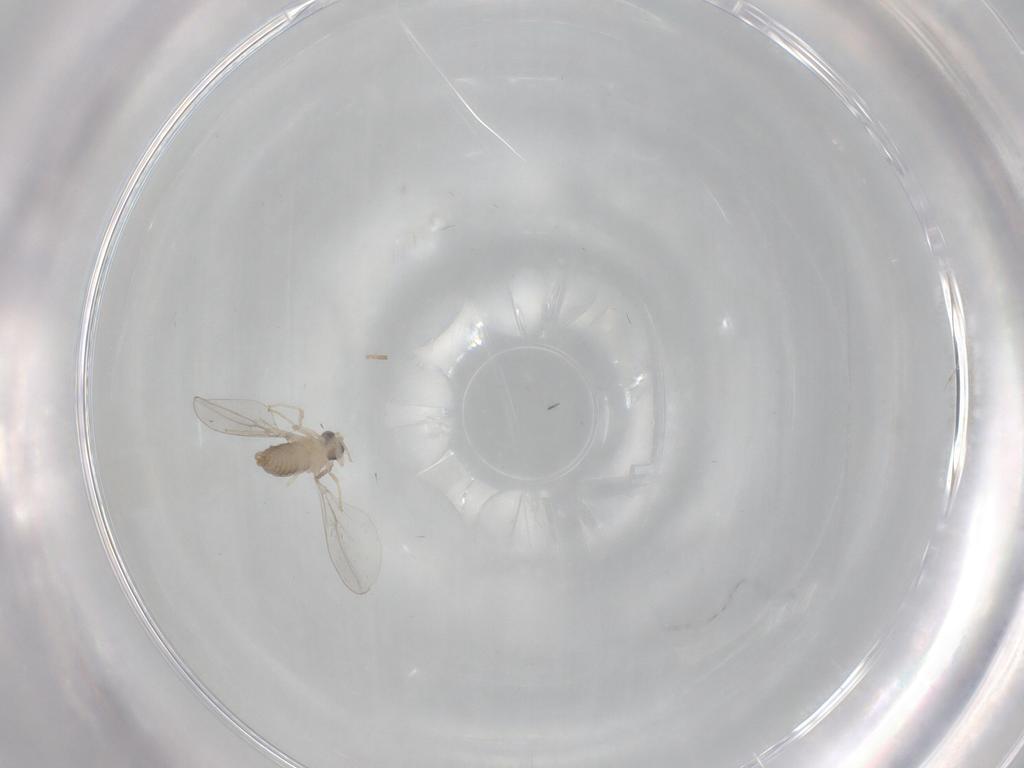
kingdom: Animalia
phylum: Arthropoda
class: Insecta
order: Diptera
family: Cecidomyiidae
